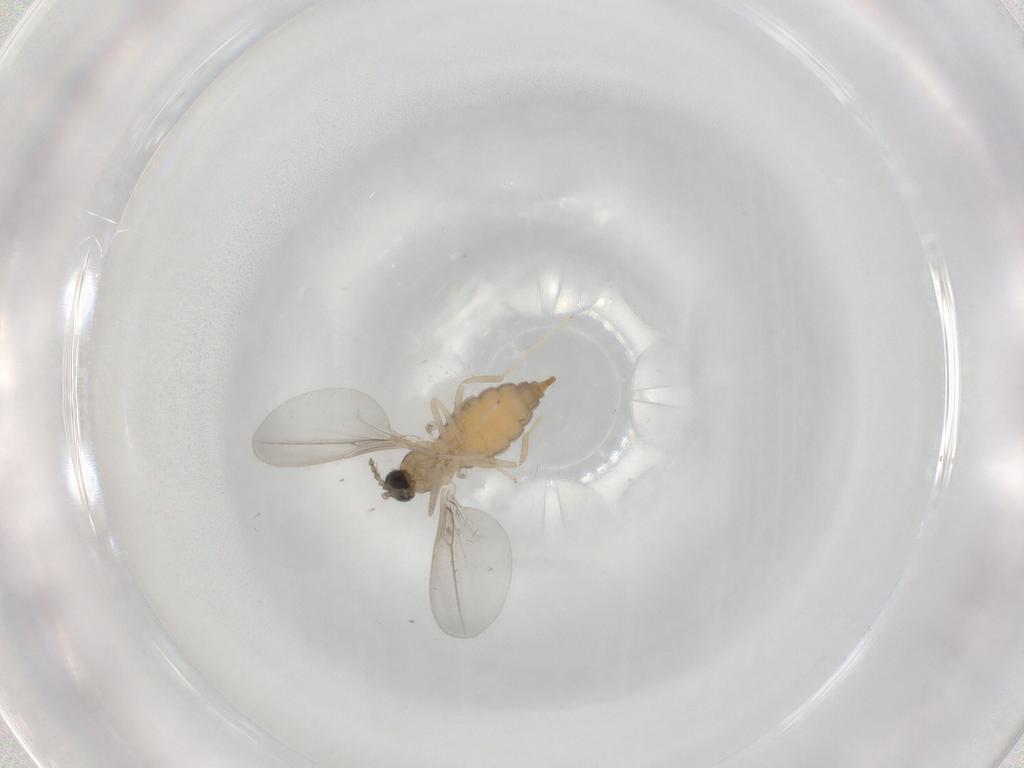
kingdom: Animalia
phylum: Arthropoda
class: Insecta
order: Diptera
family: Cecidomyiidae
